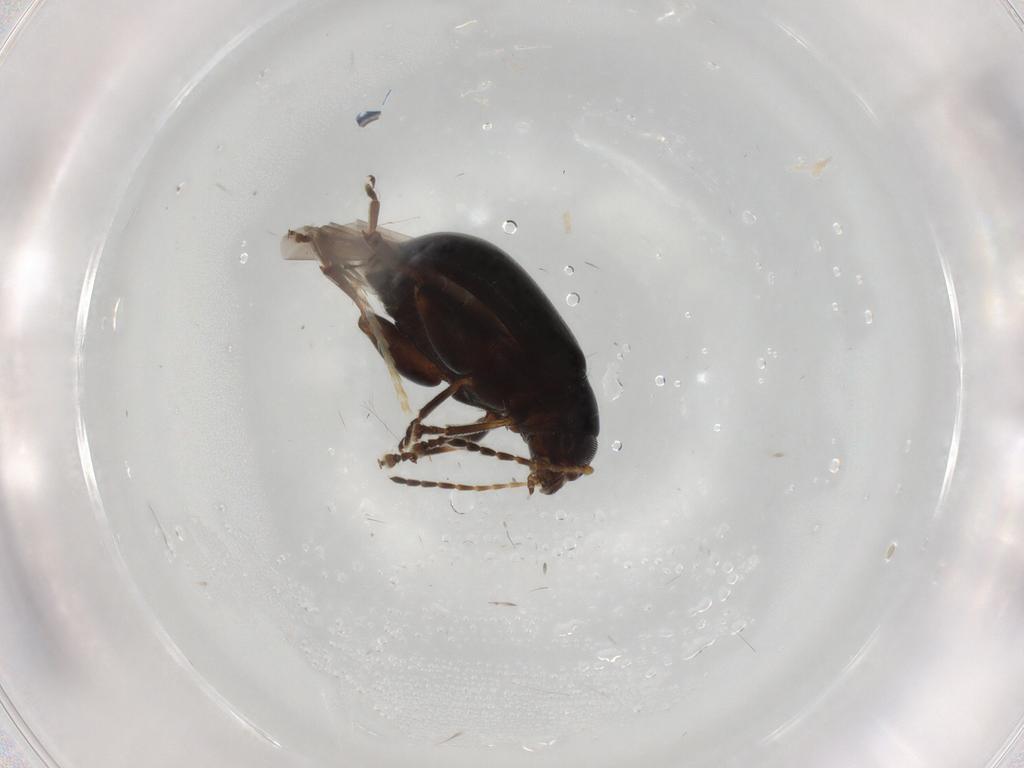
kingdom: Animalia
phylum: Arthropoda
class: Insecta
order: Coleoptera
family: Chrysomelidae
